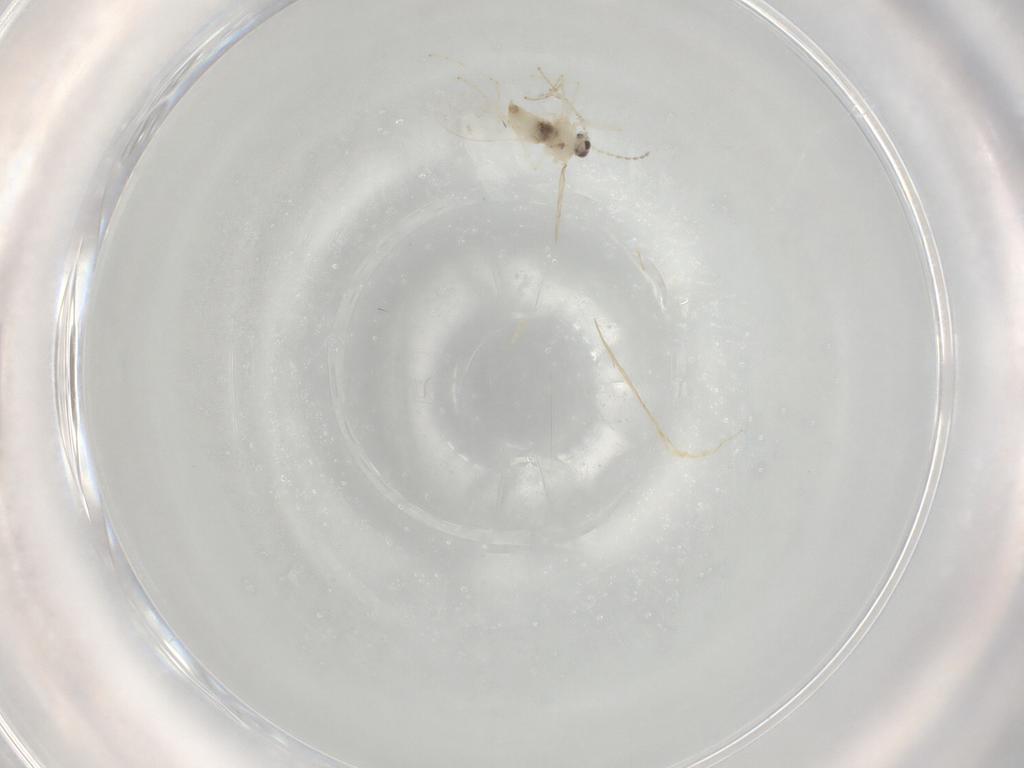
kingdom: Animalia
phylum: Arthropoda
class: Insecta
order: Diptera
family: Cecidomyiidae
